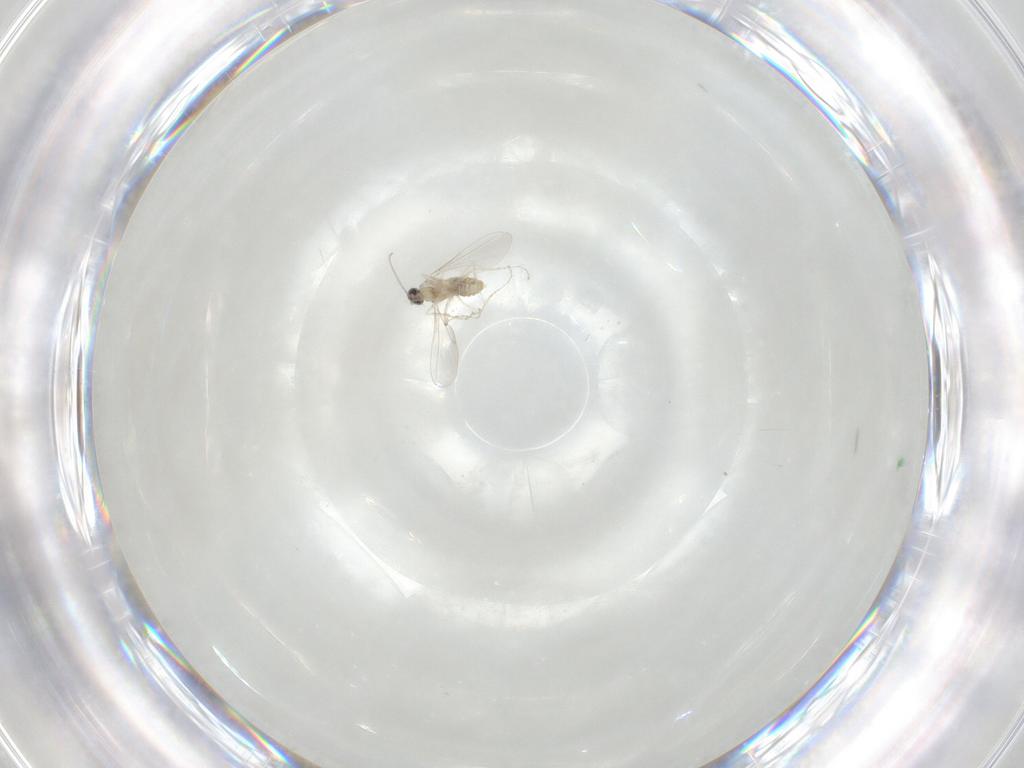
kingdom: Animalia
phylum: Arthropoda
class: Insecta
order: Diptera
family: Cecidomyiidae
